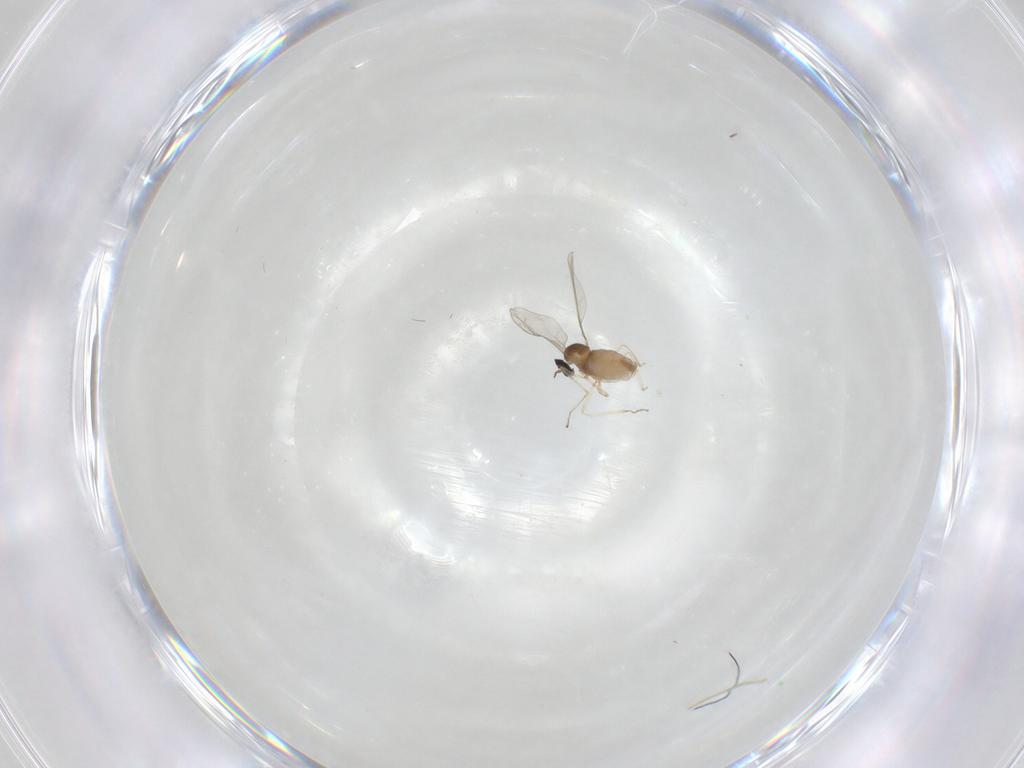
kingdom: Animalia
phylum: Arthropoda
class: Insecta
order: Diptera
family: Cecidomyiidae
